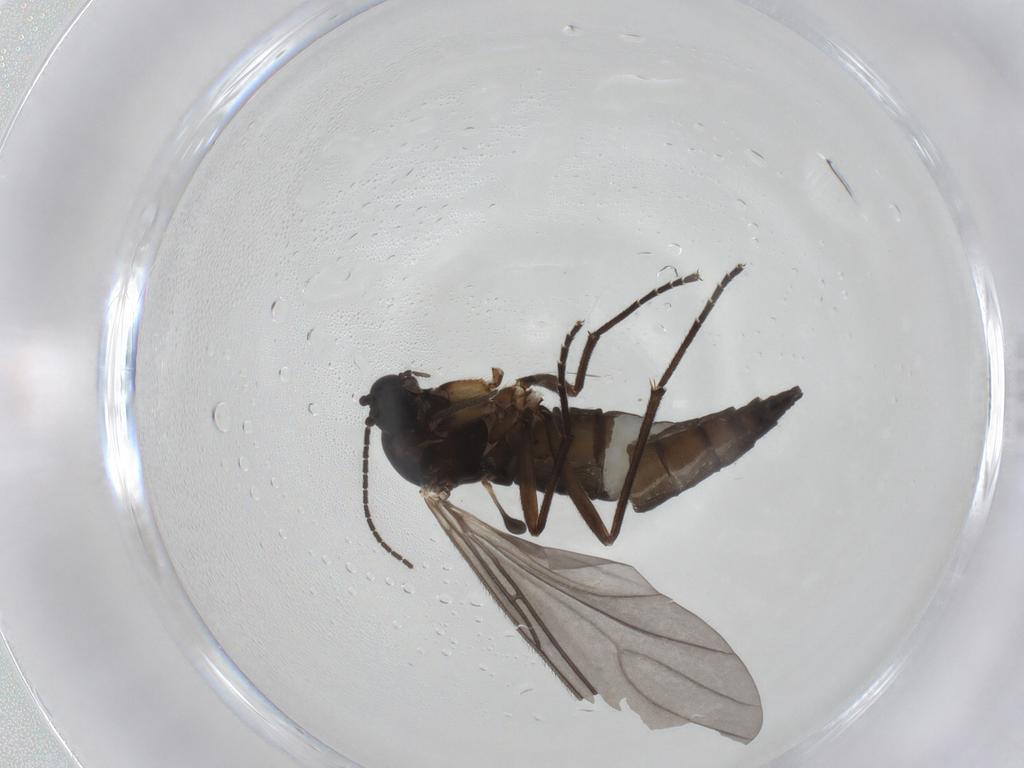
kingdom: Animalia
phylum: Arthropoda
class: Insecta
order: Diptera
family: Sciaridae
